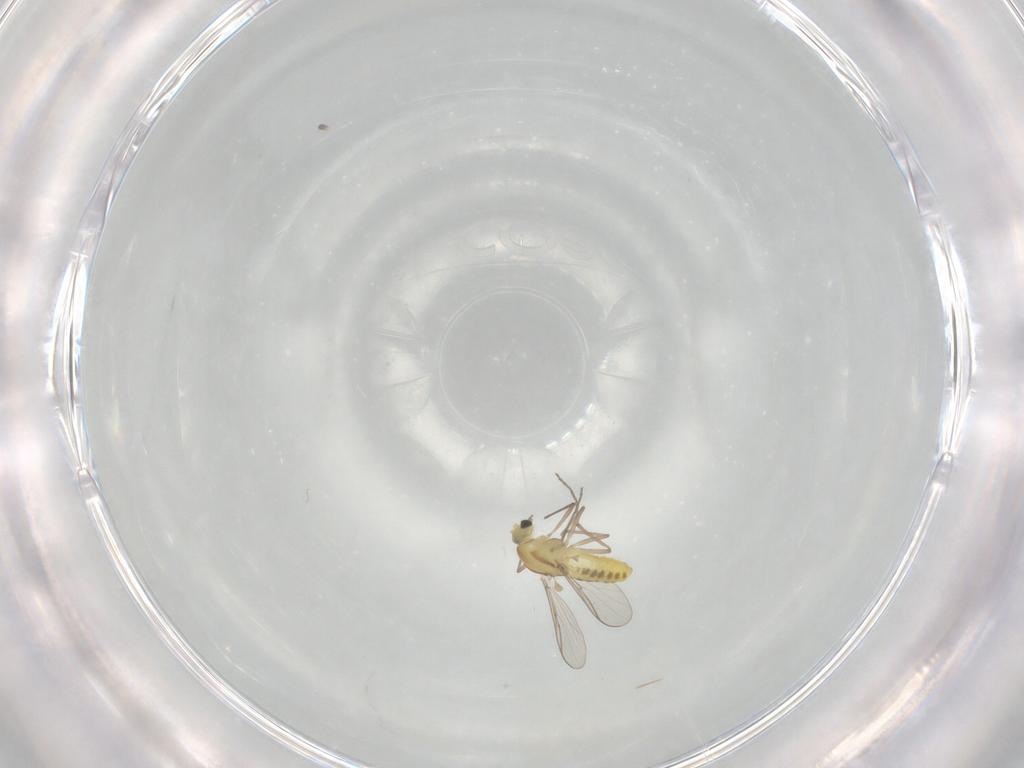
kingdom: Animalia
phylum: Arthropoda
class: Insecta
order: Diptera
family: Chironomidae
